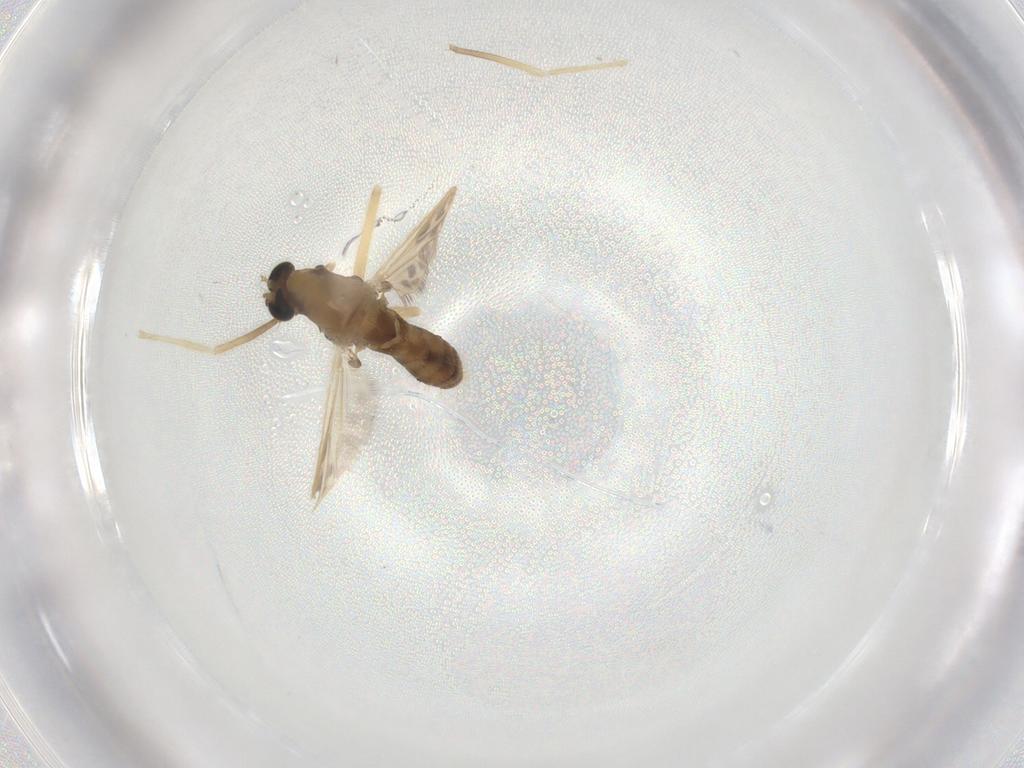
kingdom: Animalia
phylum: Arthropoda
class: Insecta
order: Diptera
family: Chironomidae
